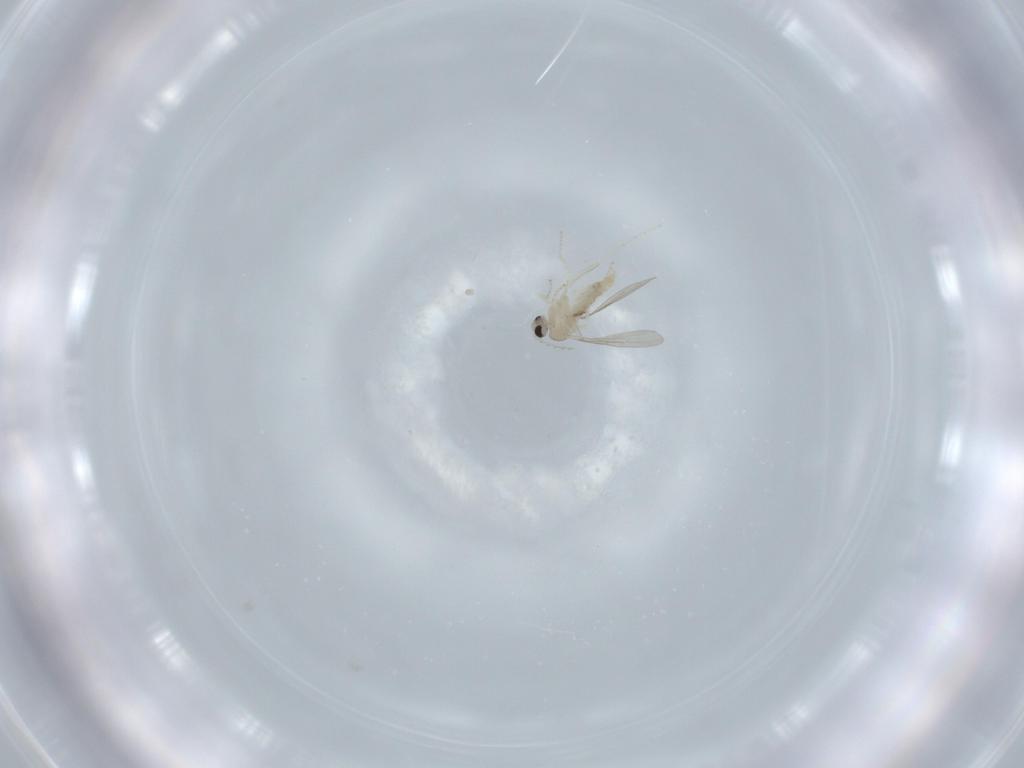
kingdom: Animalia
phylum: Arthropoda
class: Insecta
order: Diptera
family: Cecidomyiidae
